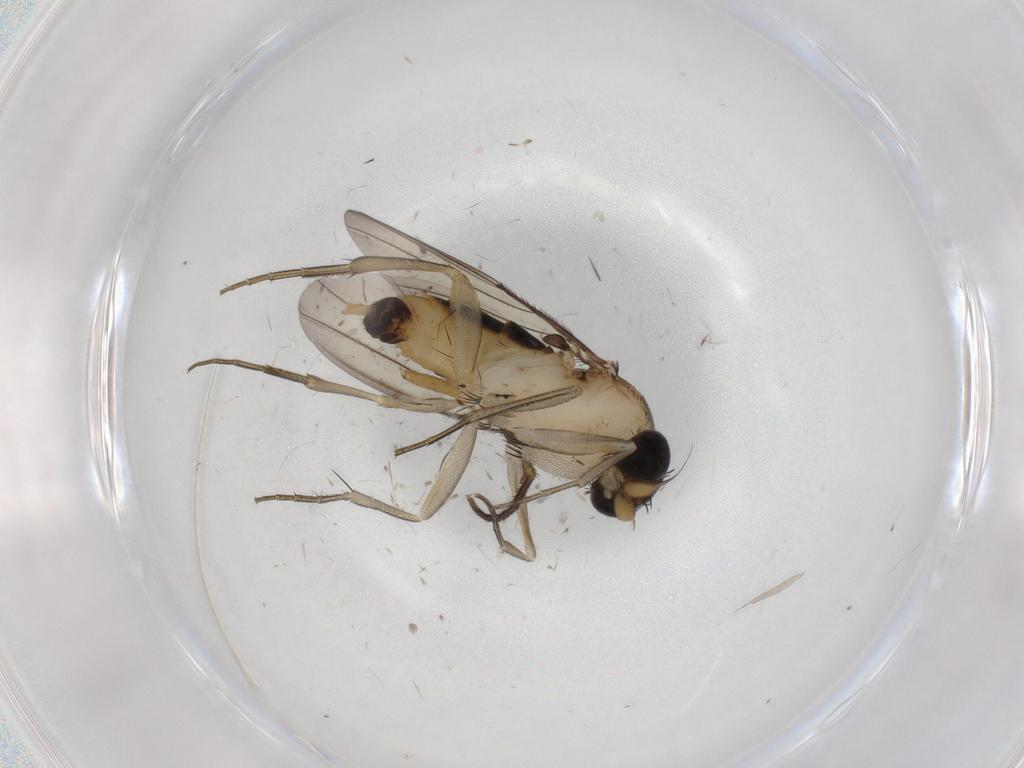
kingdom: Animalia
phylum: Arthropoda
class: Insecta
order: Diptera
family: Phoridae
